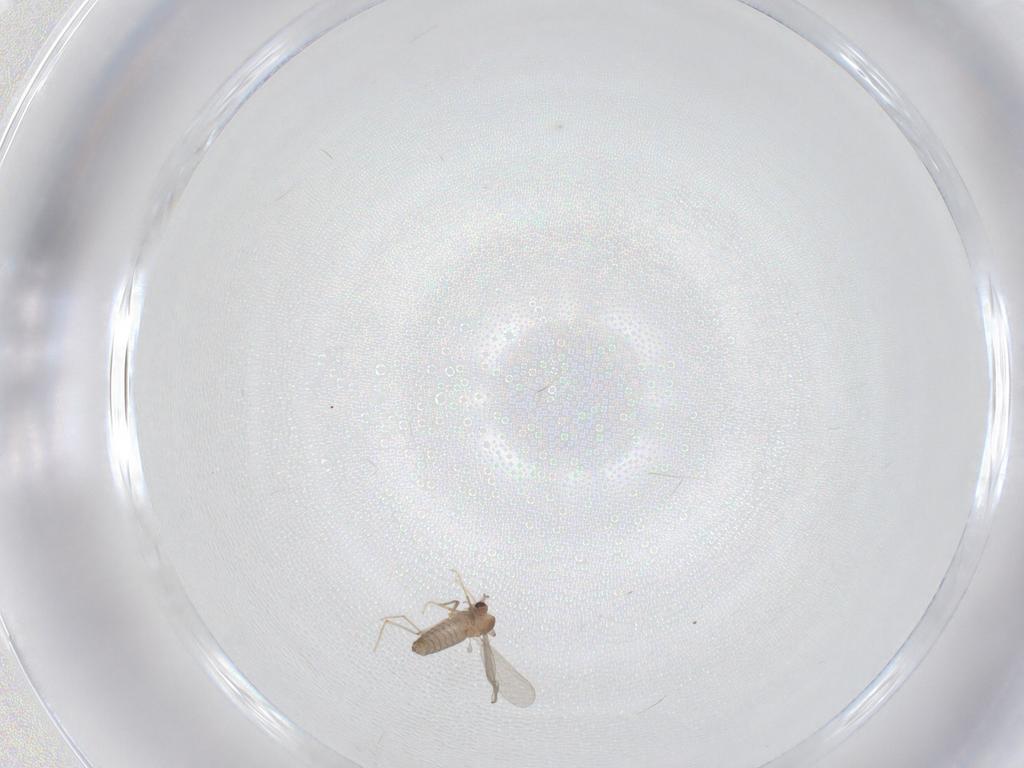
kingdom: Animalia
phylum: Arthropoda
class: Insecta
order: Diptera
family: Chironomidae
